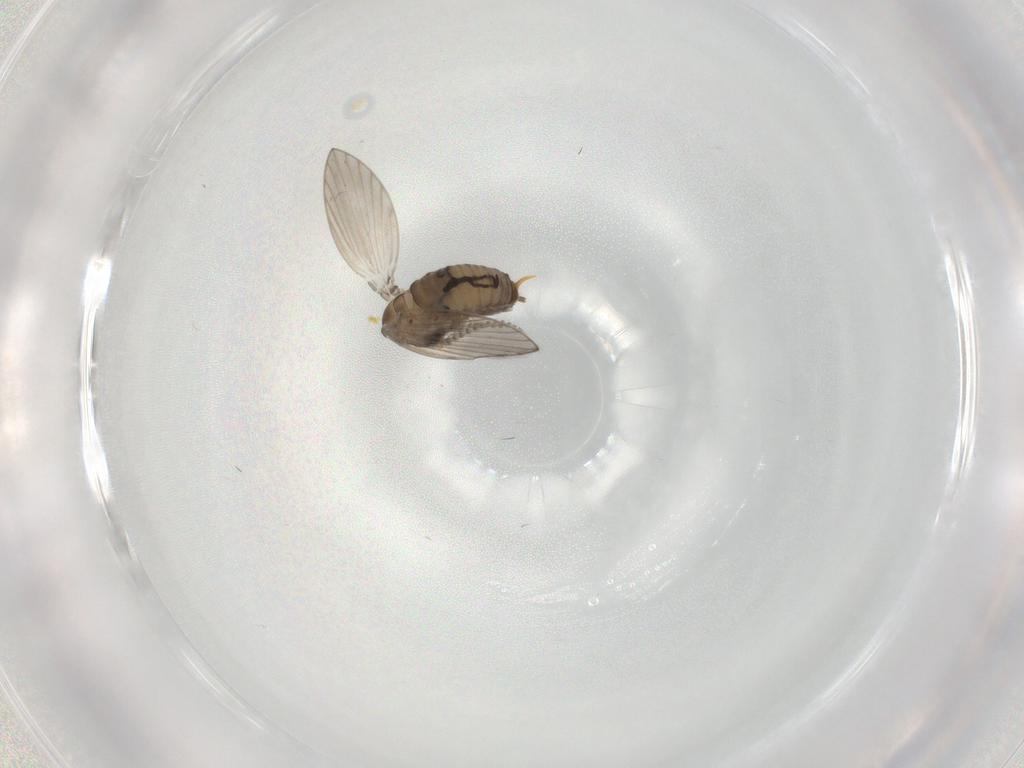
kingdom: Animalia
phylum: Arthropoda
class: Insecta
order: Diptera
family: Psychodidae
